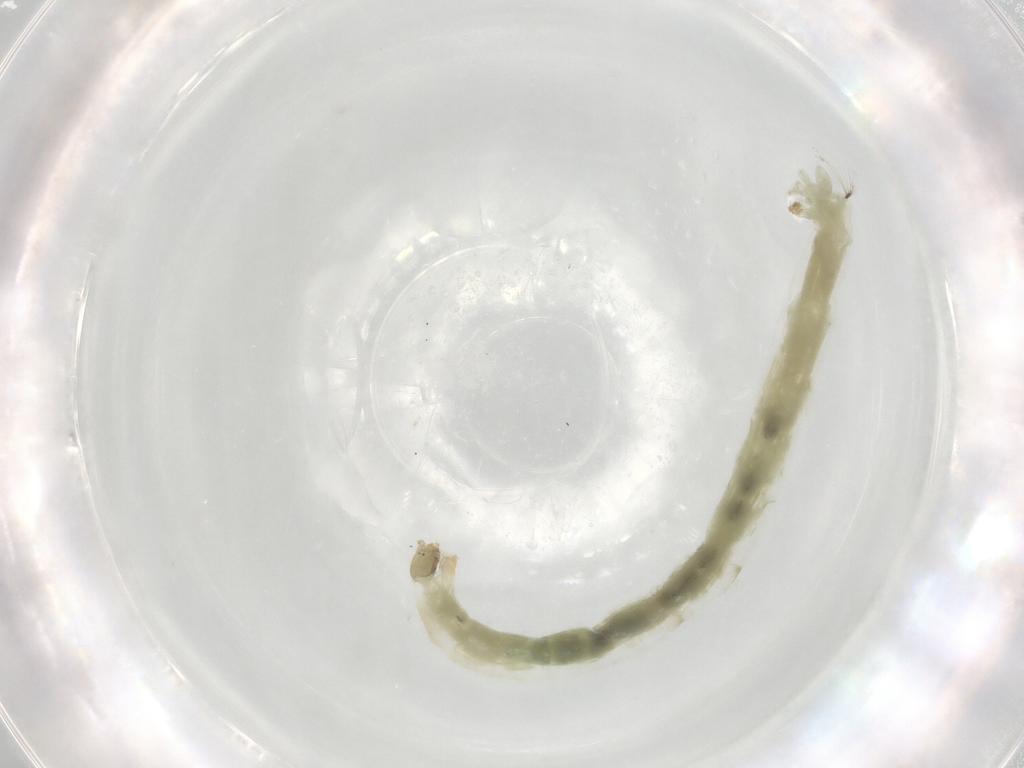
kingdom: Animalia
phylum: Arthropoda
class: Insecta
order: Diptera
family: Chironomidae
